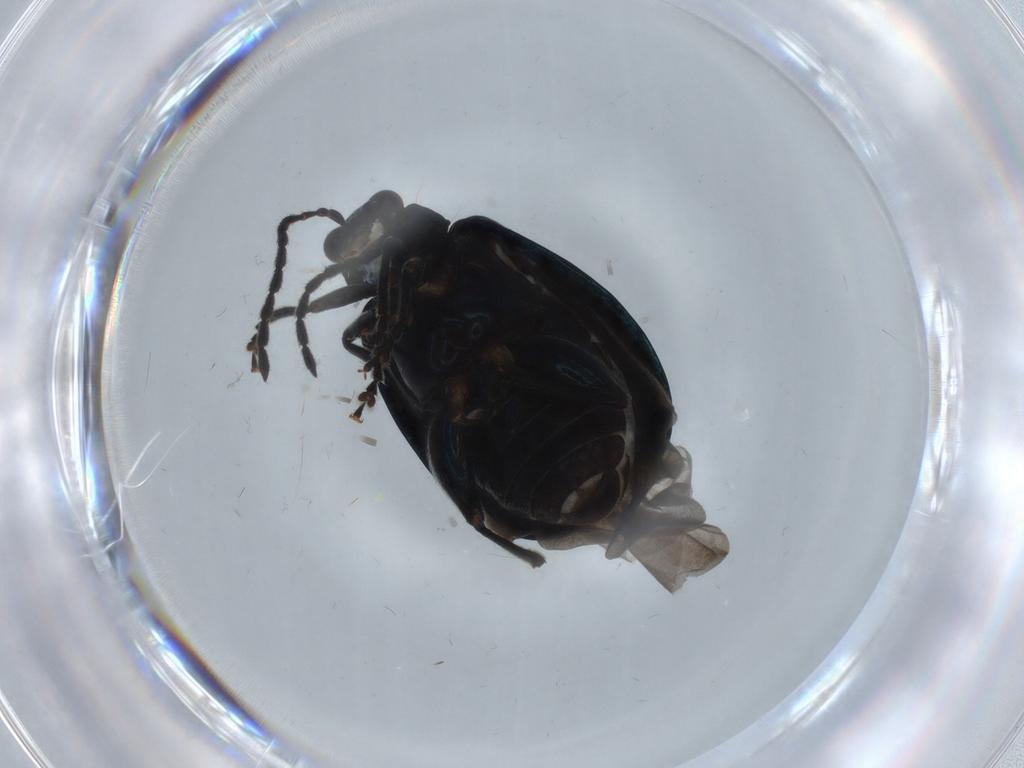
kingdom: Animalia
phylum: Arthropoda
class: Insecta
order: Coleoptera
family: Chrysomelidae
